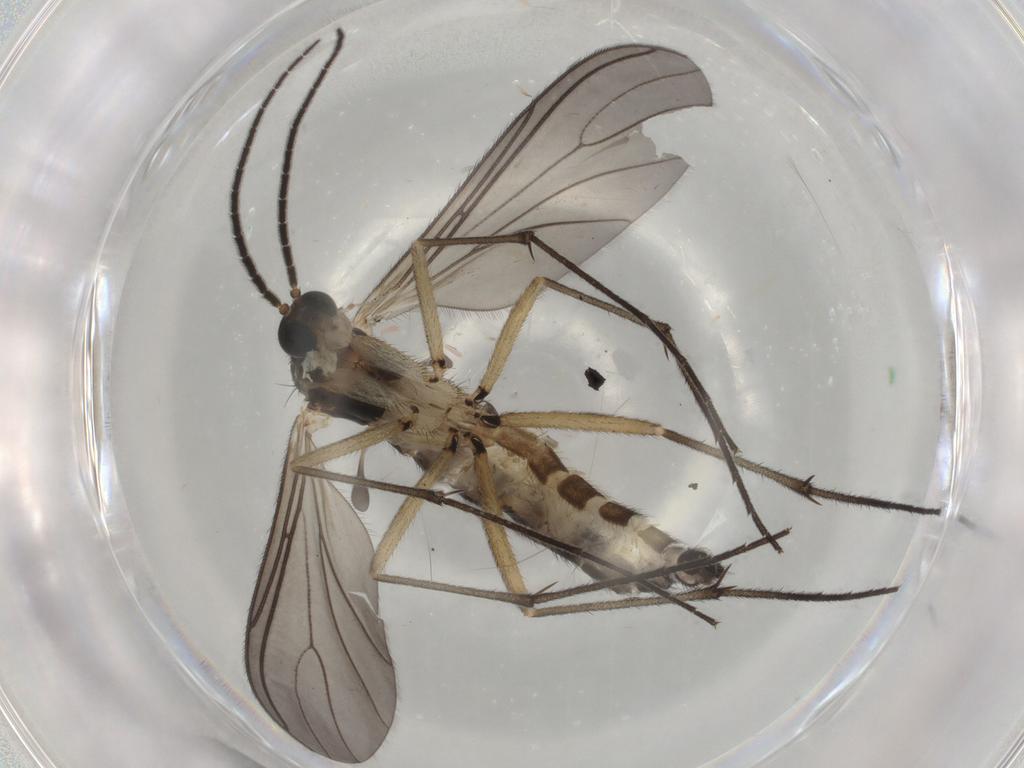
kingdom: Animalia
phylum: Arthropoda
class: Insecta
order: Diptera
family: Sciaridae
